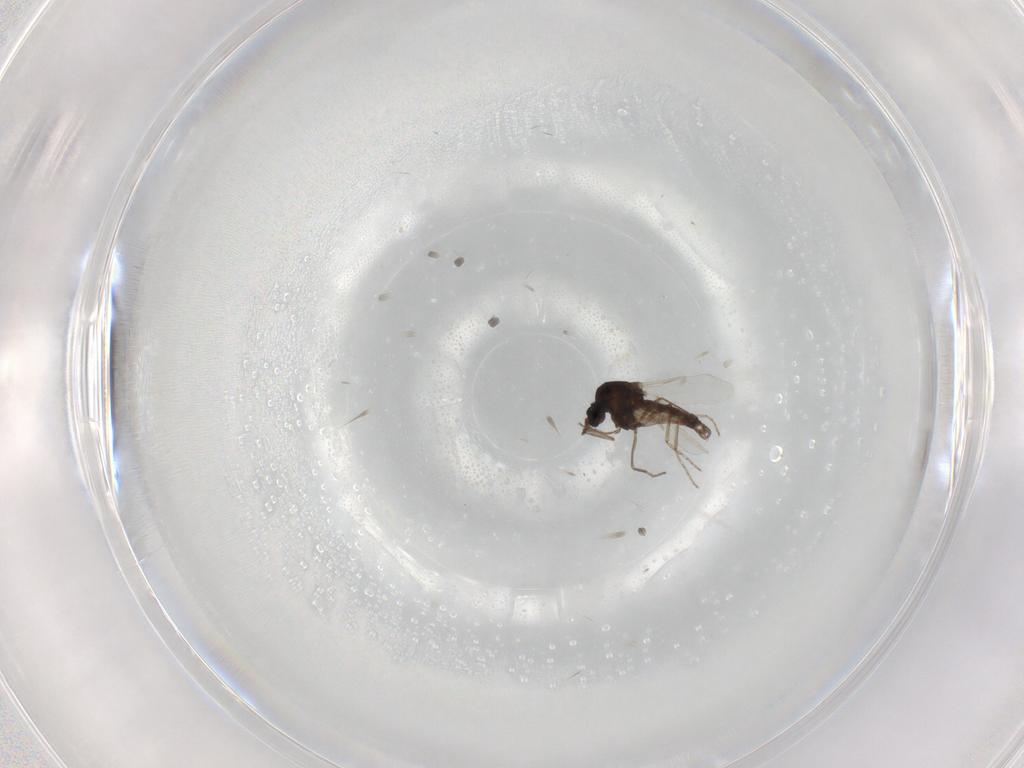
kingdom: Animalia
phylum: Arthropoda
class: Insecta
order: Diptera
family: Ceratopogonidae
